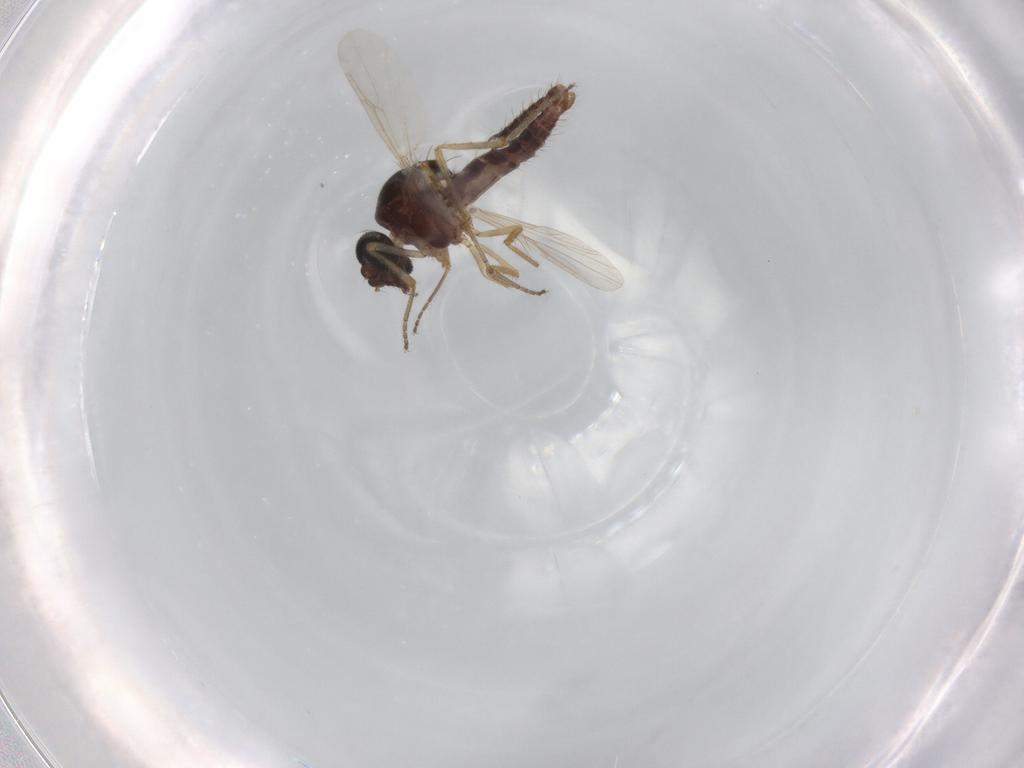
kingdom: Animalia
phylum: Arthropoda
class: Insecta
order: Diptera
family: Ceratopogonidae
